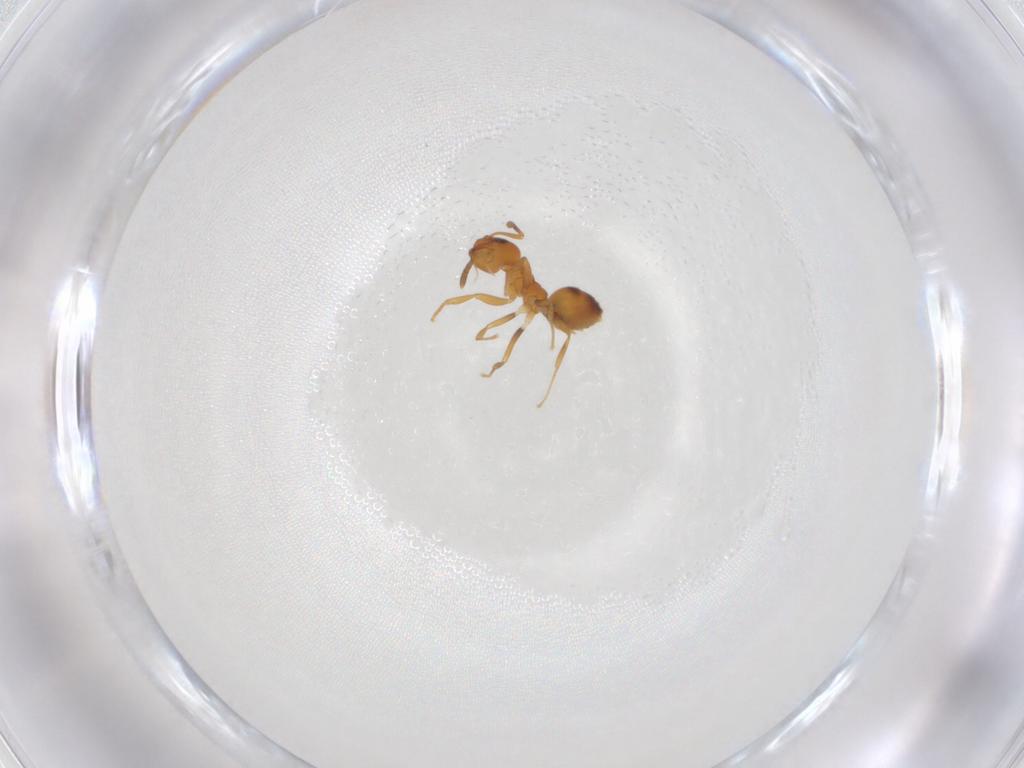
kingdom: Animalia
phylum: Arthropoda
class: Insecta
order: Hymenoptera
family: Formicidae
